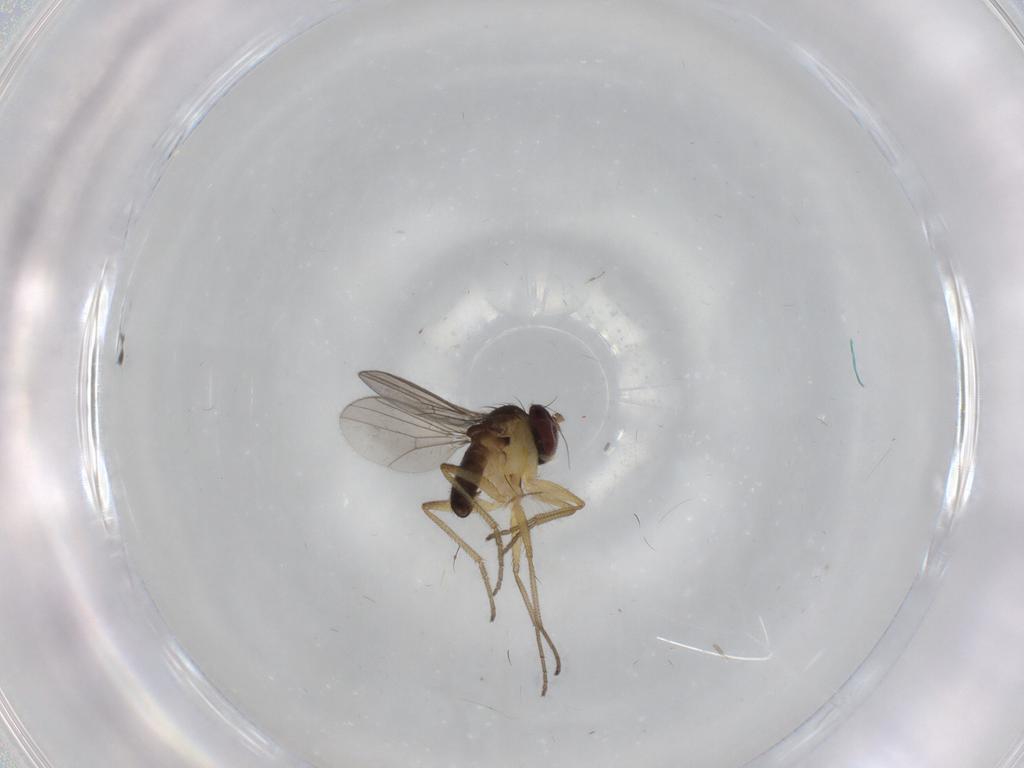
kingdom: Animalia
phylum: Arthropoda
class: Insecta
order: Diptera
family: Dolichopodidae
